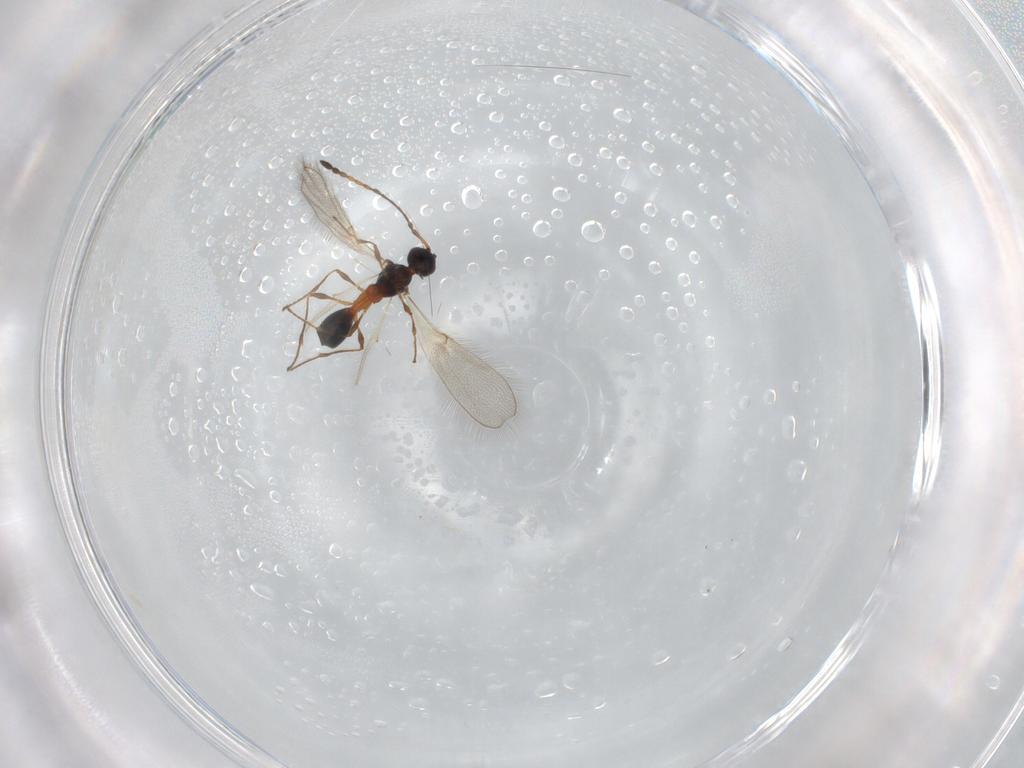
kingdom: Animalia
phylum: Arthropoda
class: Insecta
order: Hymenoptera
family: Diapriidae
